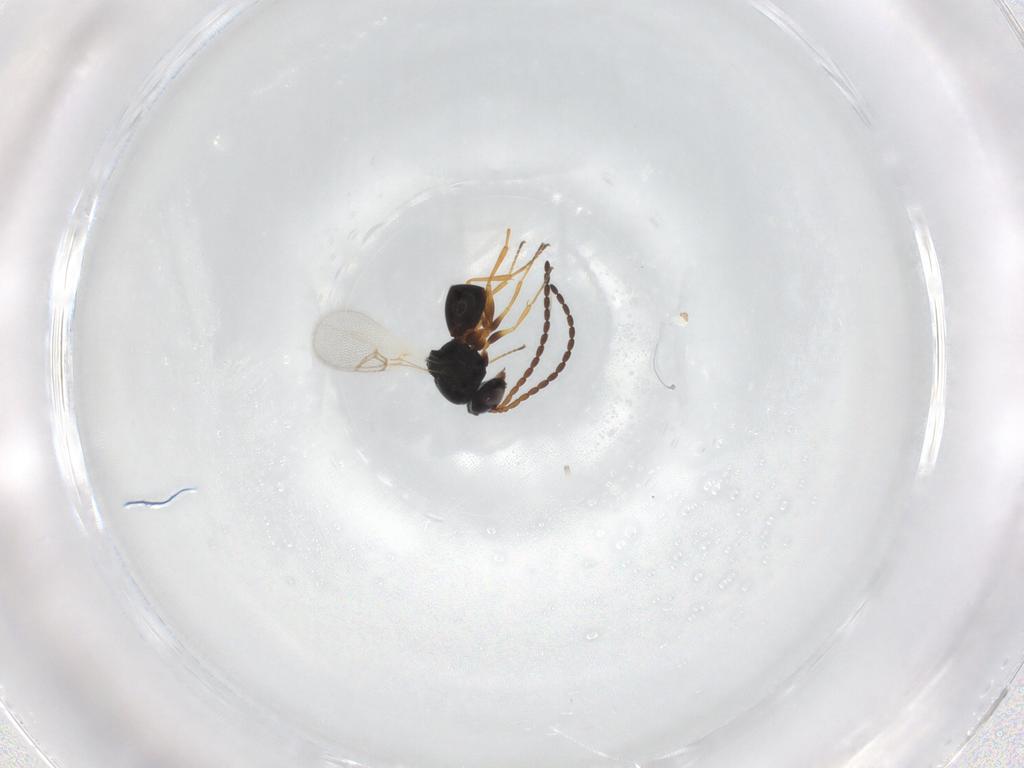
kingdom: Animalia
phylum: Arthropoda
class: Insecta
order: Hymenoptera
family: Figitidae
